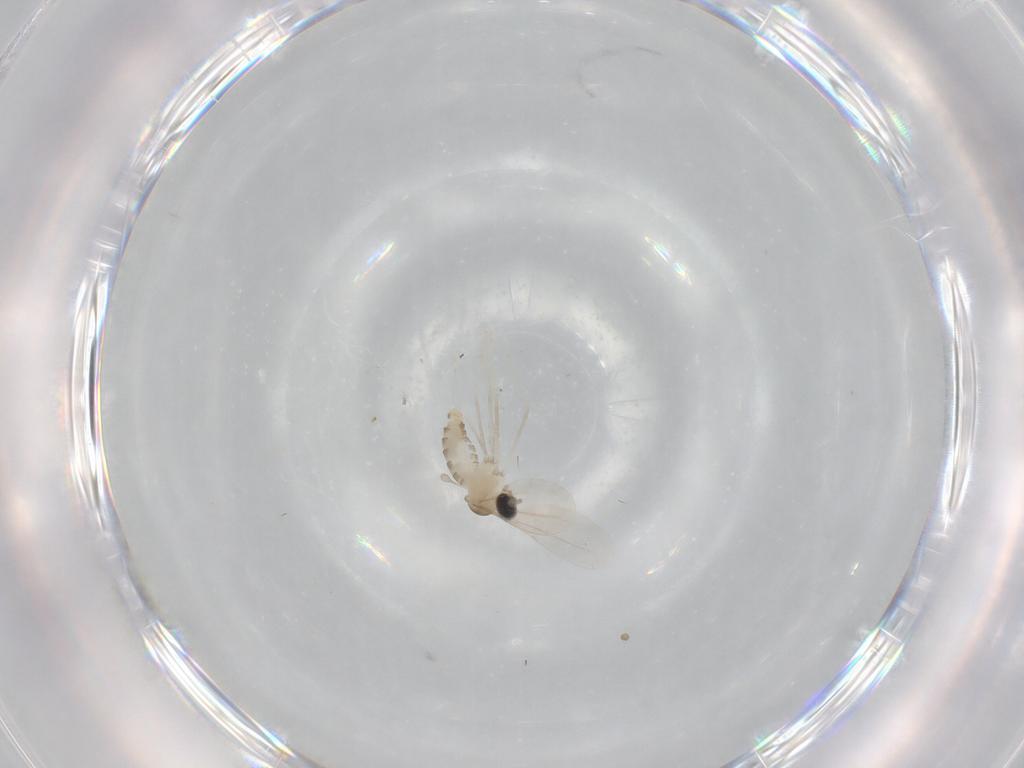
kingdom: Animalia
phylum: Arthropoda
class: Insecta
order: Diptera
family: Cecidomyiidae
